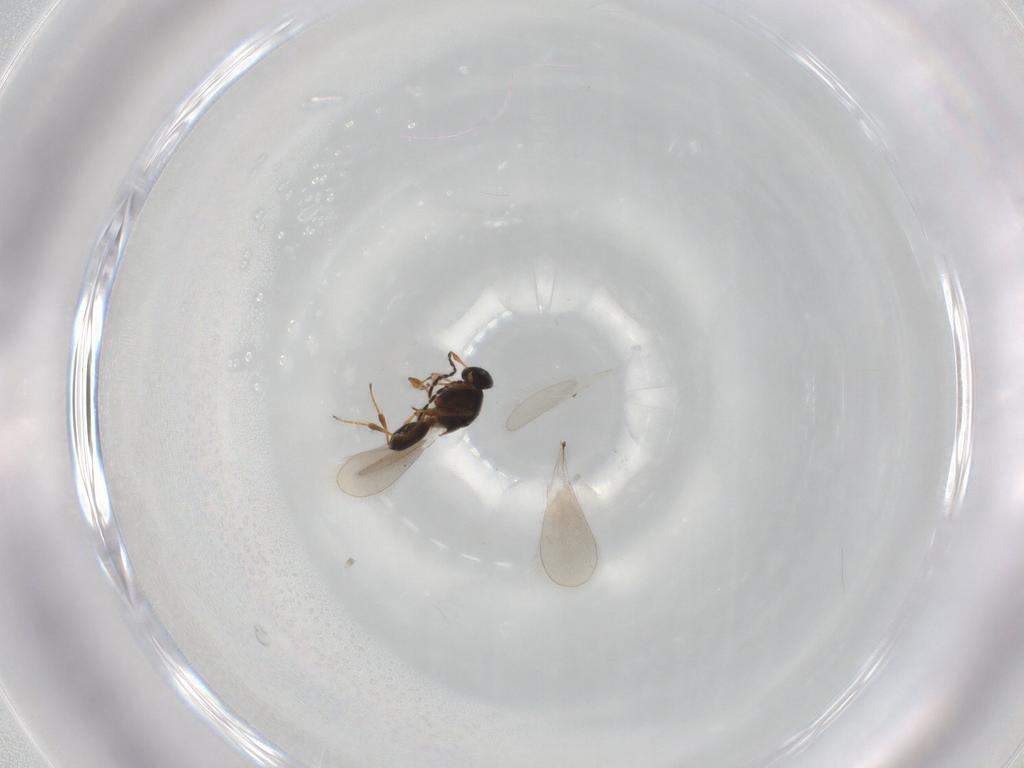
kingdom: Animalia
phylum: Arthropoda
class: Insecta
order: Hymenoptera
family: Platygastridae
